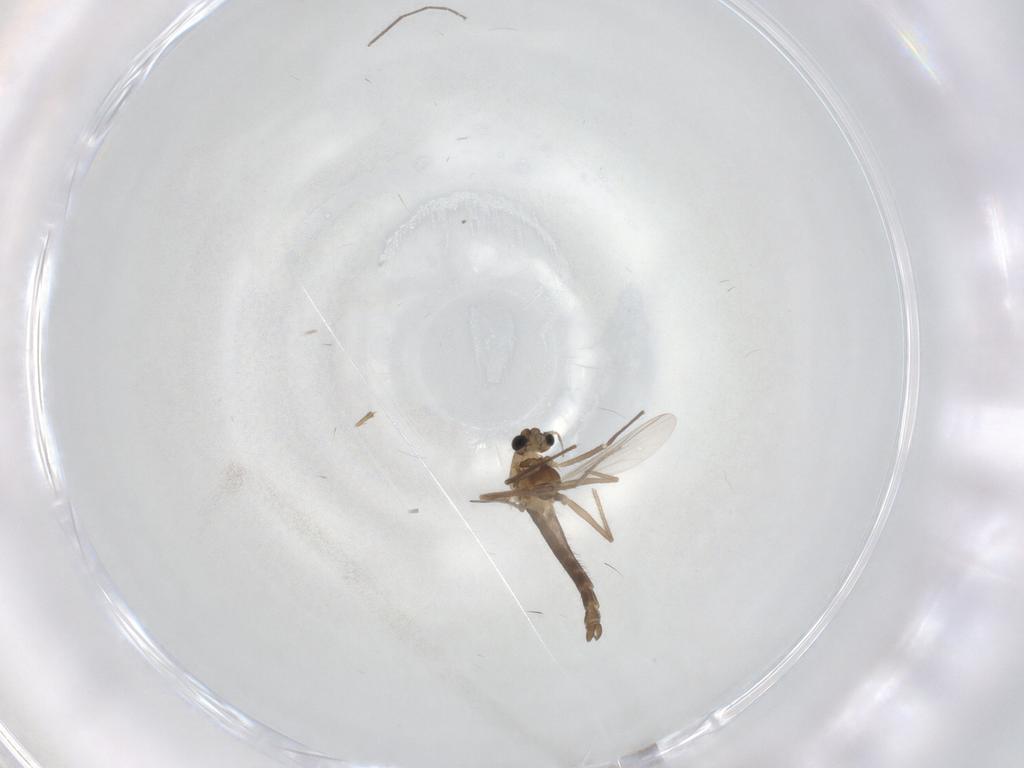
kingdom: Animalia
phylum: Arthropoda
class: Insecta
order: Diptera
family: Chironomidae
